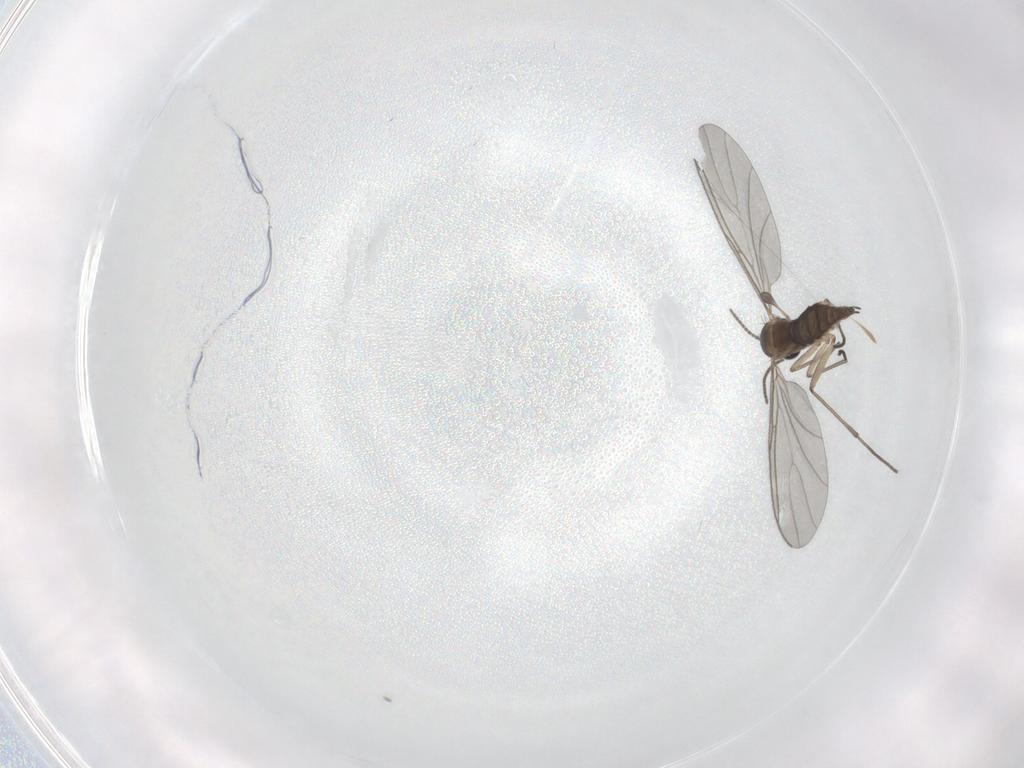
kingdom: Animalia
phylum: Arthropoda
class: Insecta
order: Diptera
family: Sciaridae
